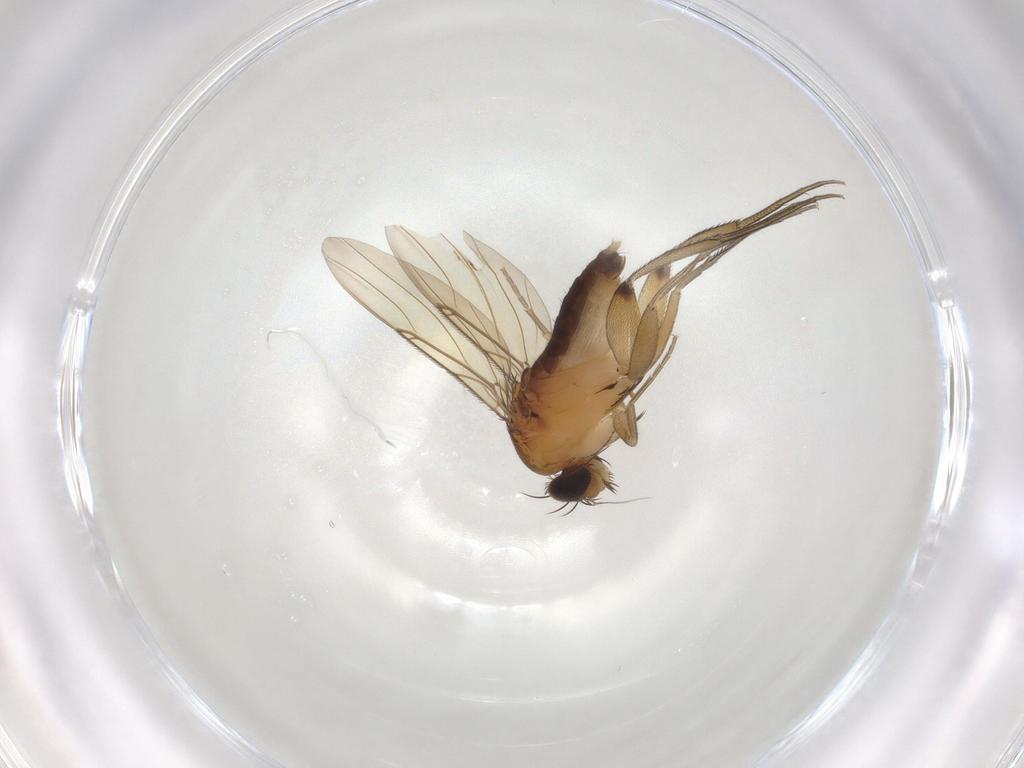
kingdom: Animalia
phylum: Arthropoda
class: Insecta
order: Diptera
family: Phoridae
